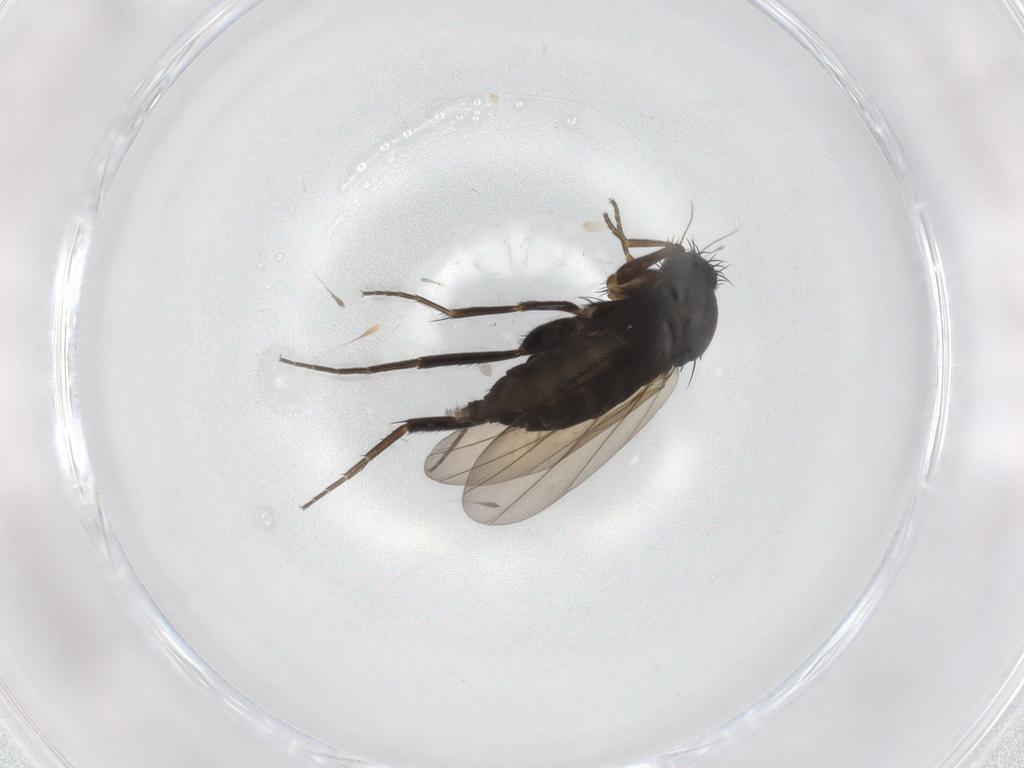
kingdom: Animalia
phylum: Arthropoda
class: Insecta
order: Diptera
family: Phoridae
